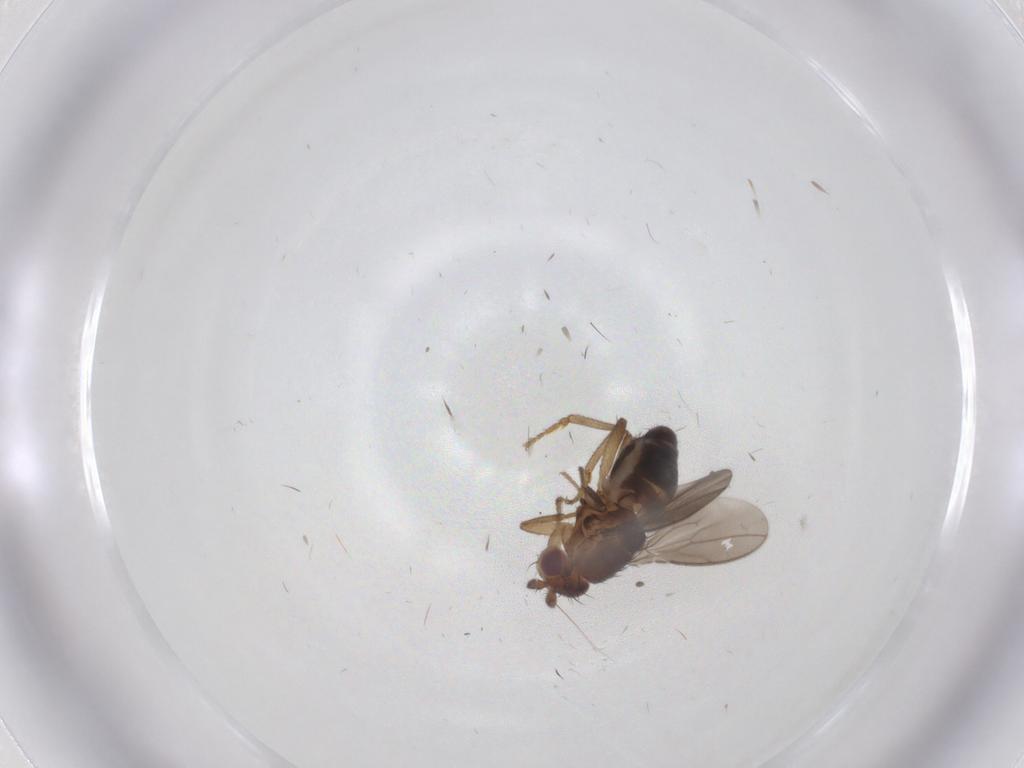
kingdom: Animalia
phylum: Arthropoda
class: Insecta
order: Diptera
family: Sphaeroceridae
